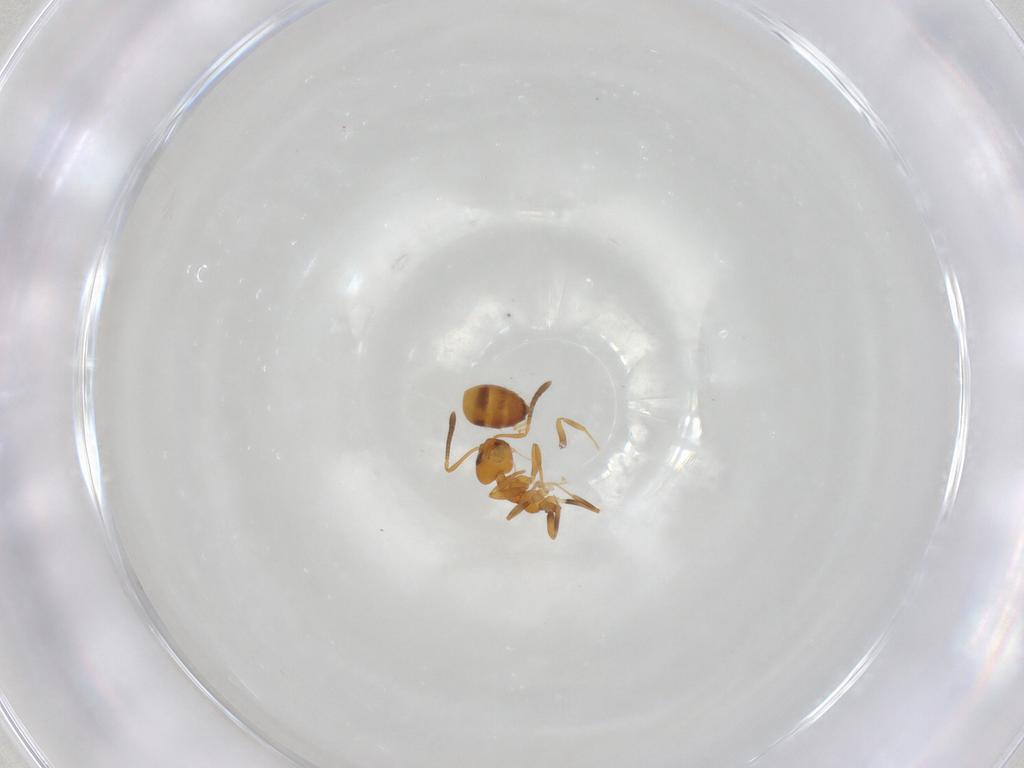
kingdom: Animalia
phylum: Arthropoda
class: Insecta
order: Hymenoptera
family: Formicidae
